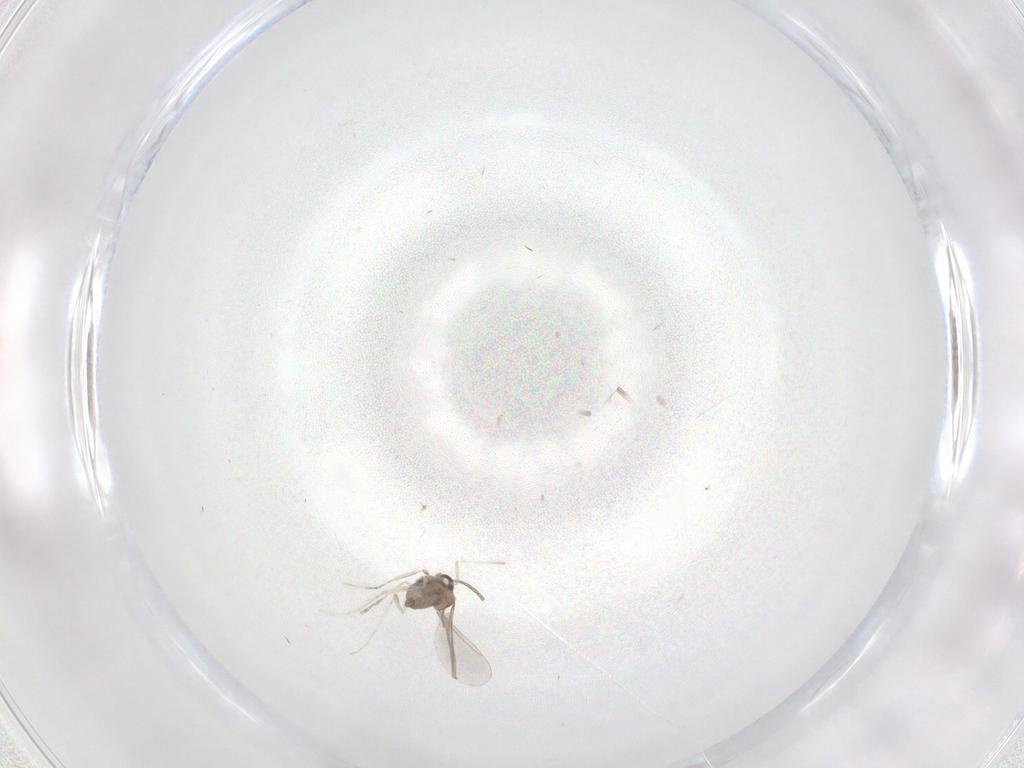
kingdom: Animalia
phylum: Arthropoda
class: Insecta
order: Diptera
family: Cecidomyiidae
